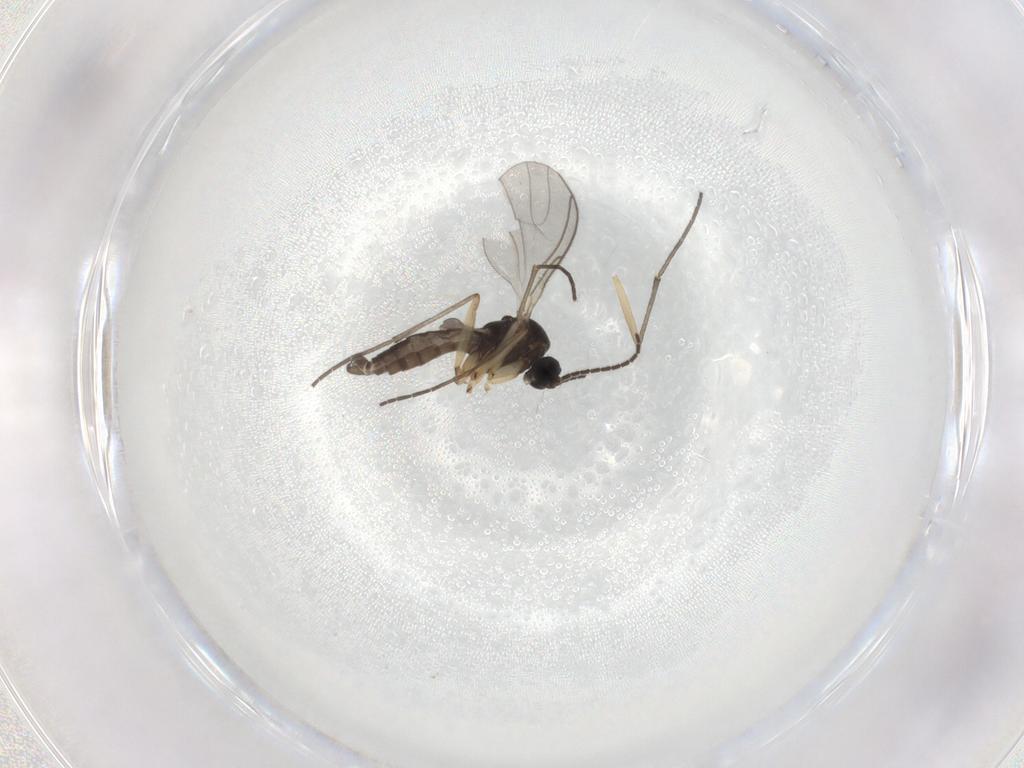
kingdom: Animalia
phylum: Arthropoda
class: Insecta
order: Diptera
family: Sciaridae
